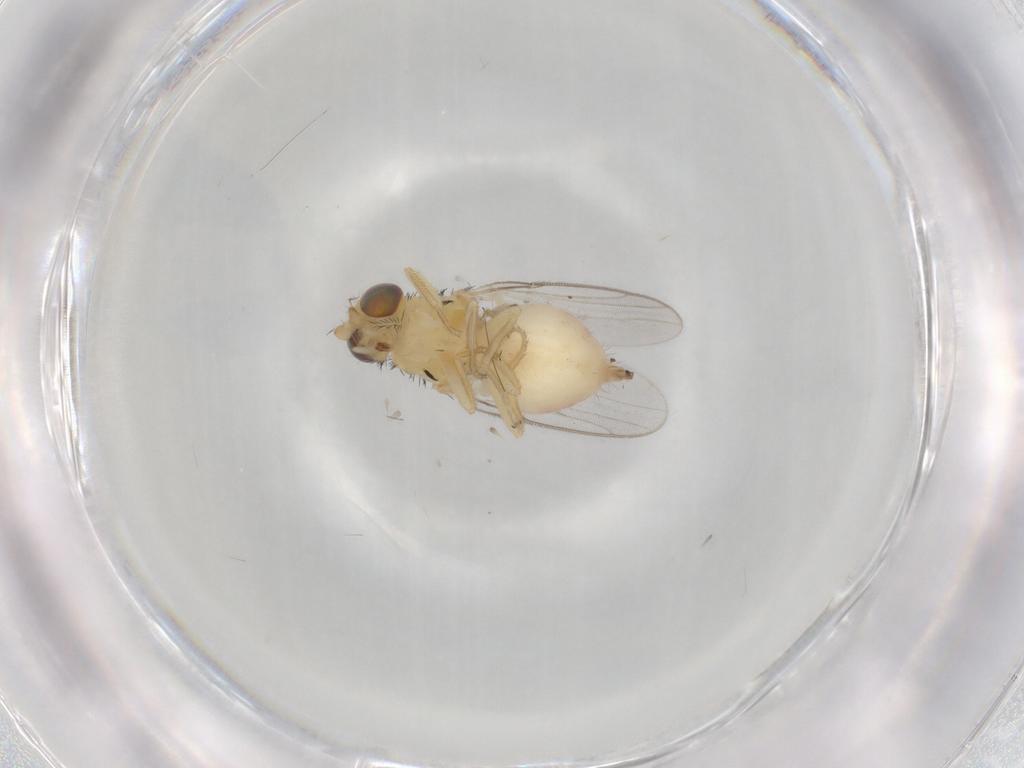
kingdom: Animalia
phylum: Arthropoda
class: Insecta
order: Diptera
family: Chloropidae
